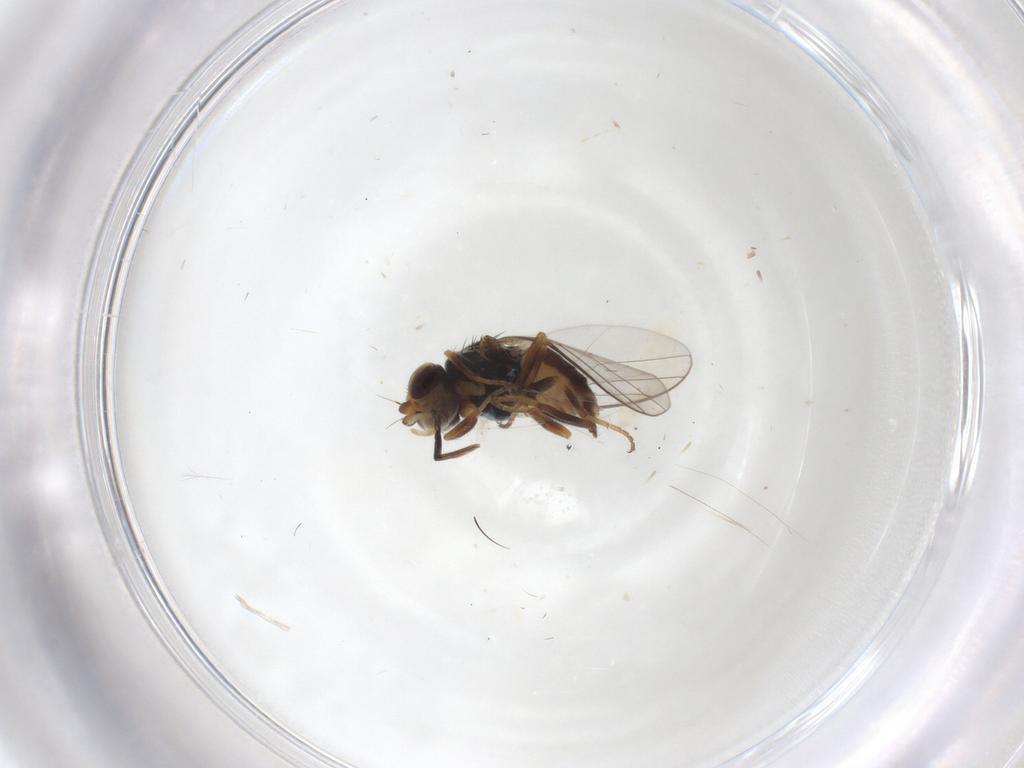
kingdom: Animalia
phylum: Arthropoda
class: Insecta
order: Diptera
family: Chloropidae
